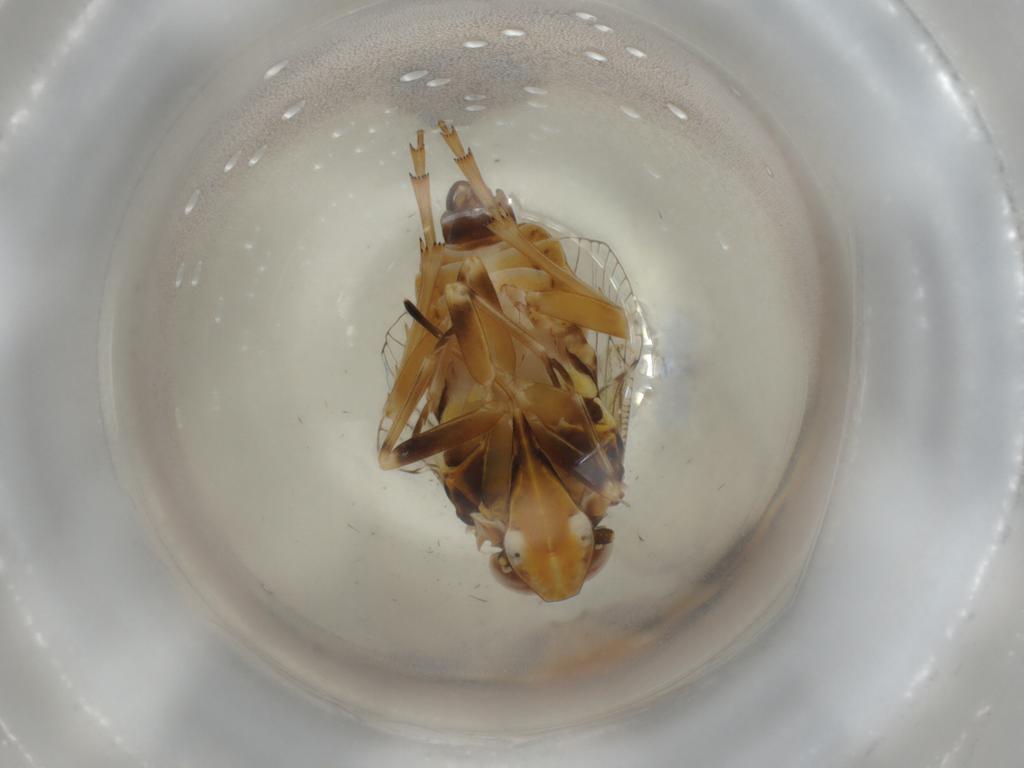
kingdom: Animalia
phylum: Arthropoda
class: Insecta
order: Hemiptera
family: Cixiidae
